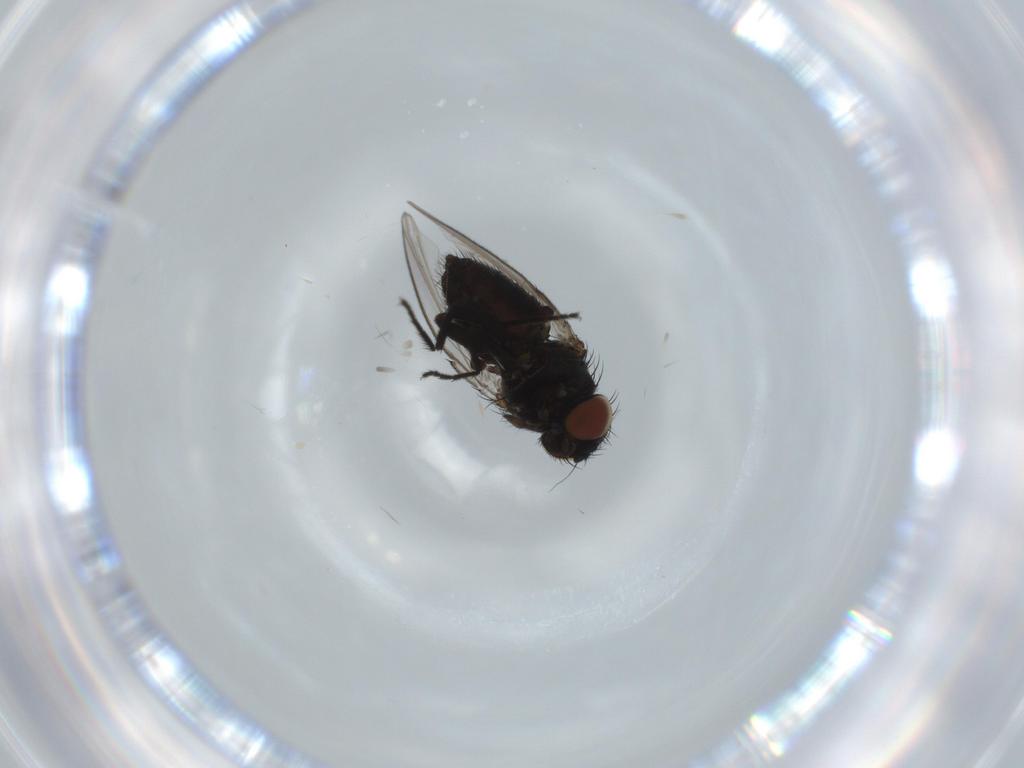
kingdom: Animalia
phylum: Arthropoda
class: Insecta
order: Diptera
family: Milichiidae
